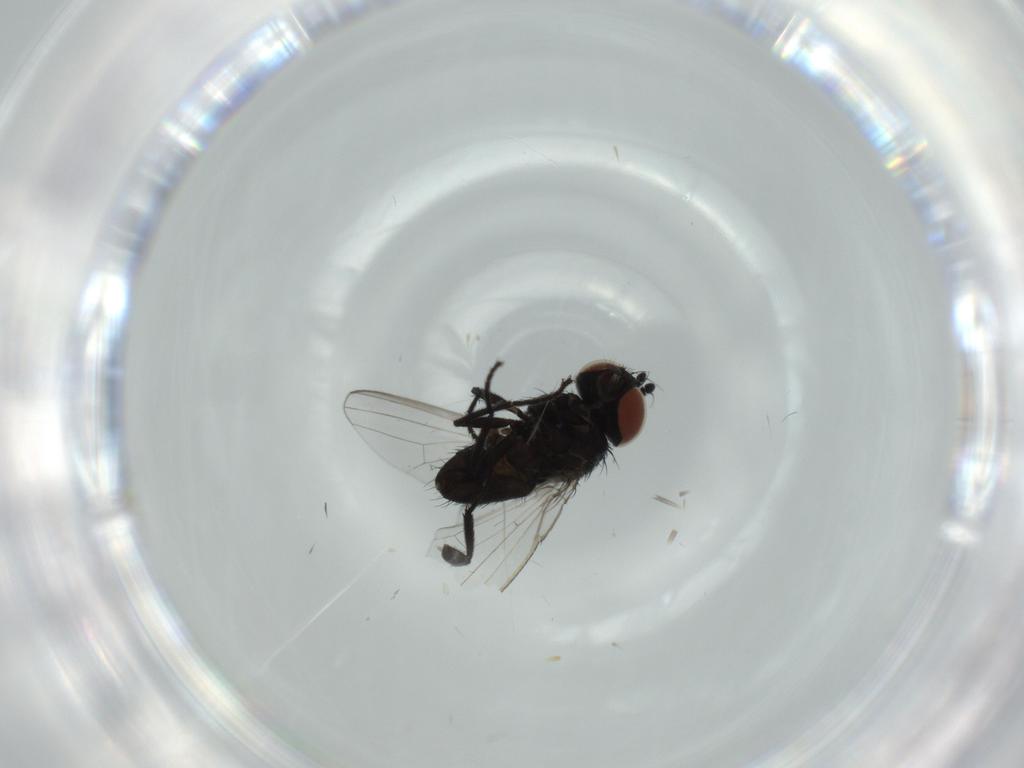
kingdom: Animalia
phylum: Arthropoda
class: Insecta
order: Diptera
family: Milichiidae
